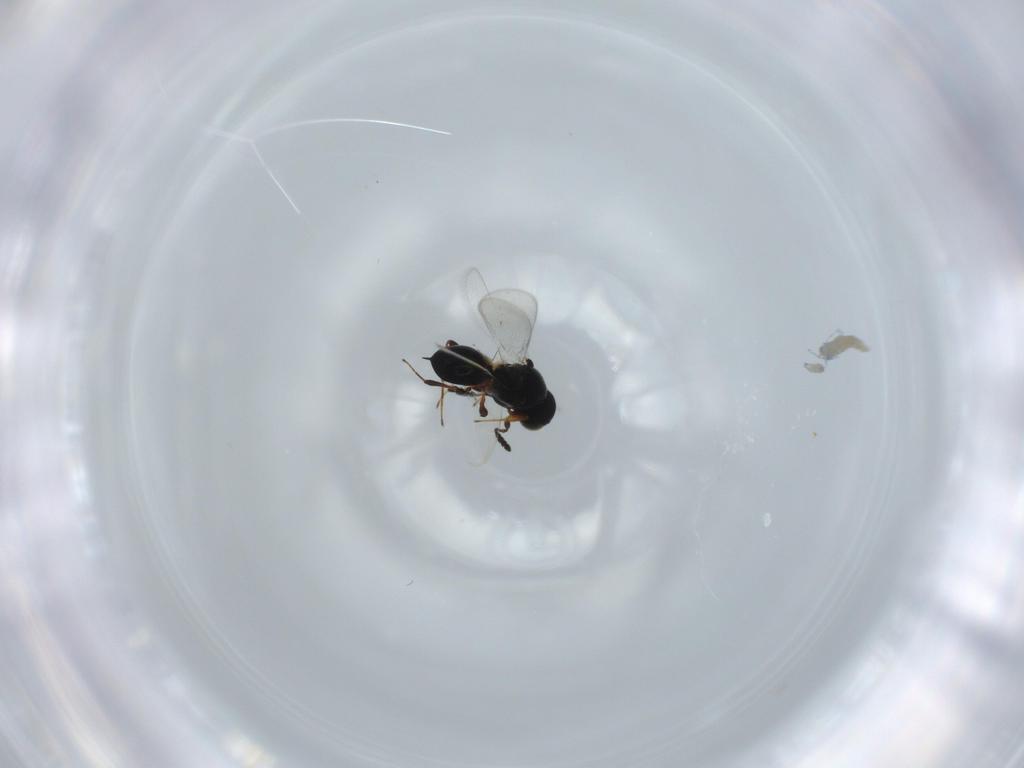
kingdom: Animalia
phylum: Arthropoda
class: Insecta
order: Hymenoptera
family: Platygastridae
